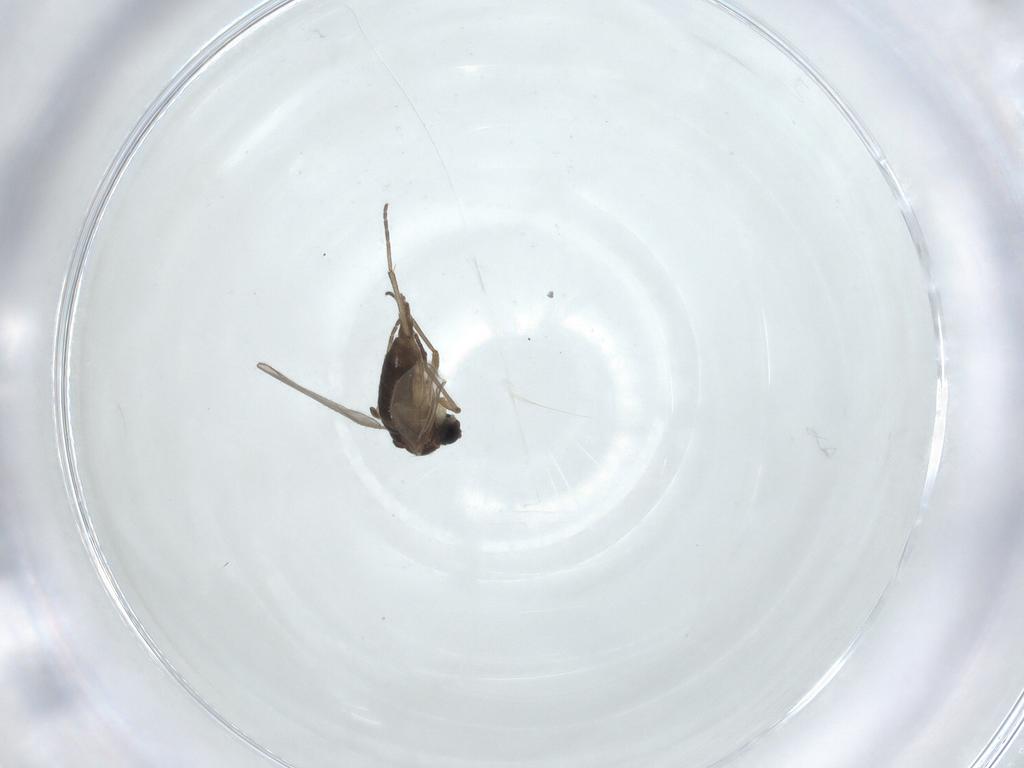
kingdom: Animalia
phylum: Arthropoda
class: Insecta
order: Diptera
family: Sciaridae
